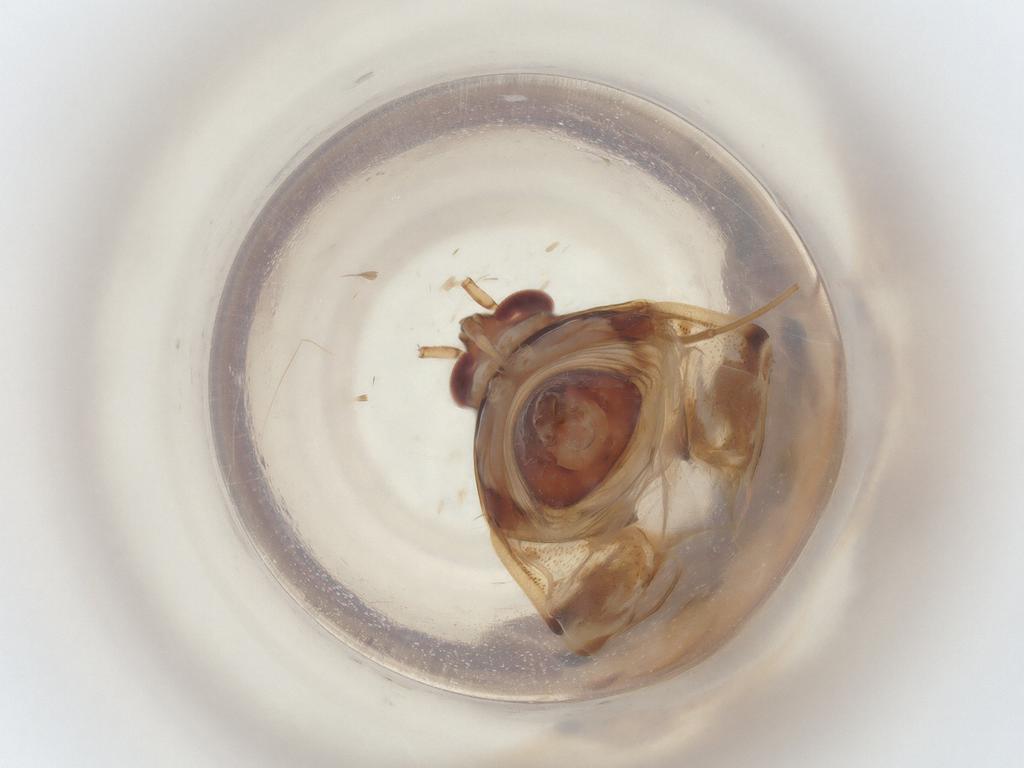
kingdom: Animalia
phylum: Arthropoda
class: Insecta
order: Hemiptera
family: Miridae
